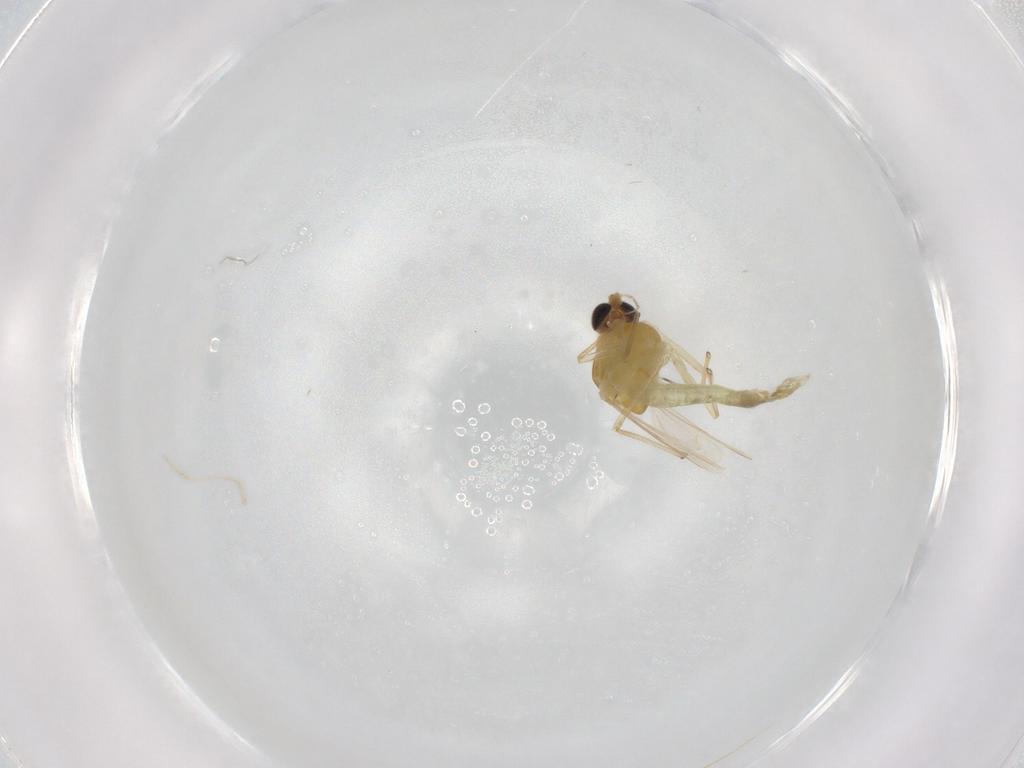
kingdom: Animalia
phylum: Arthropoda
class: Insecta
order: Diptera
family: Chironomidae
